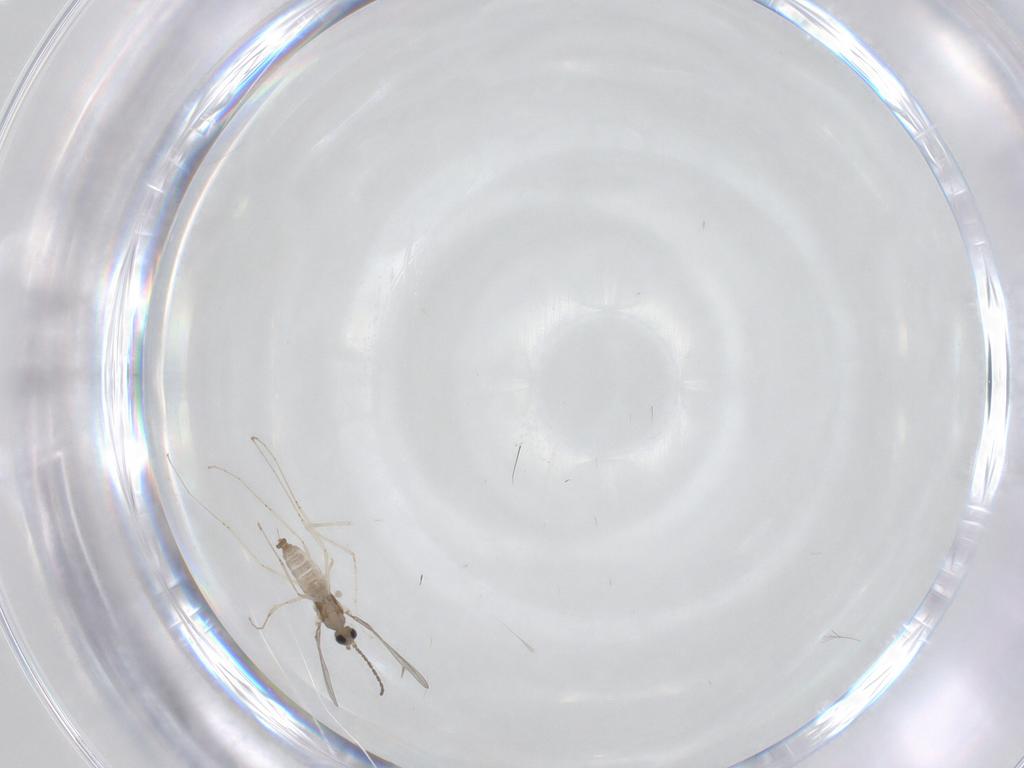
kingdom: Animalia
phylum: Arthropoda
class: Insecta
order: Diptera
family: Cecidomyiidae
